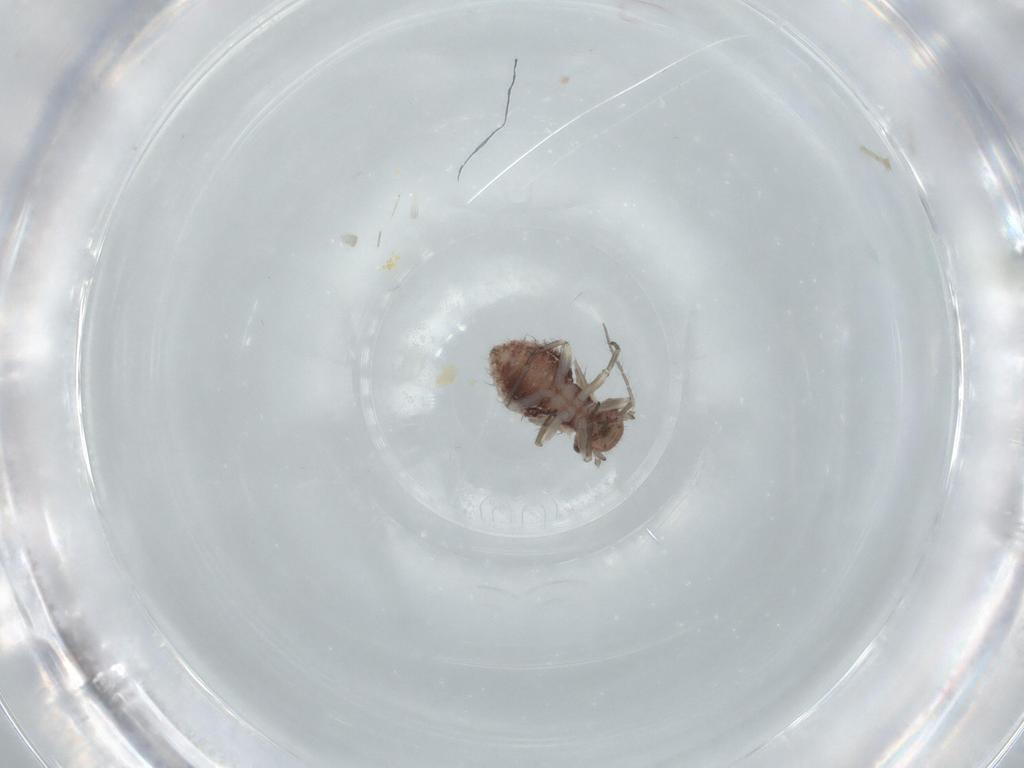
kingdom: Animalia
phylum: Arthropoda
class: Insecta
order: Psocodea
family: Caeciliusidae
